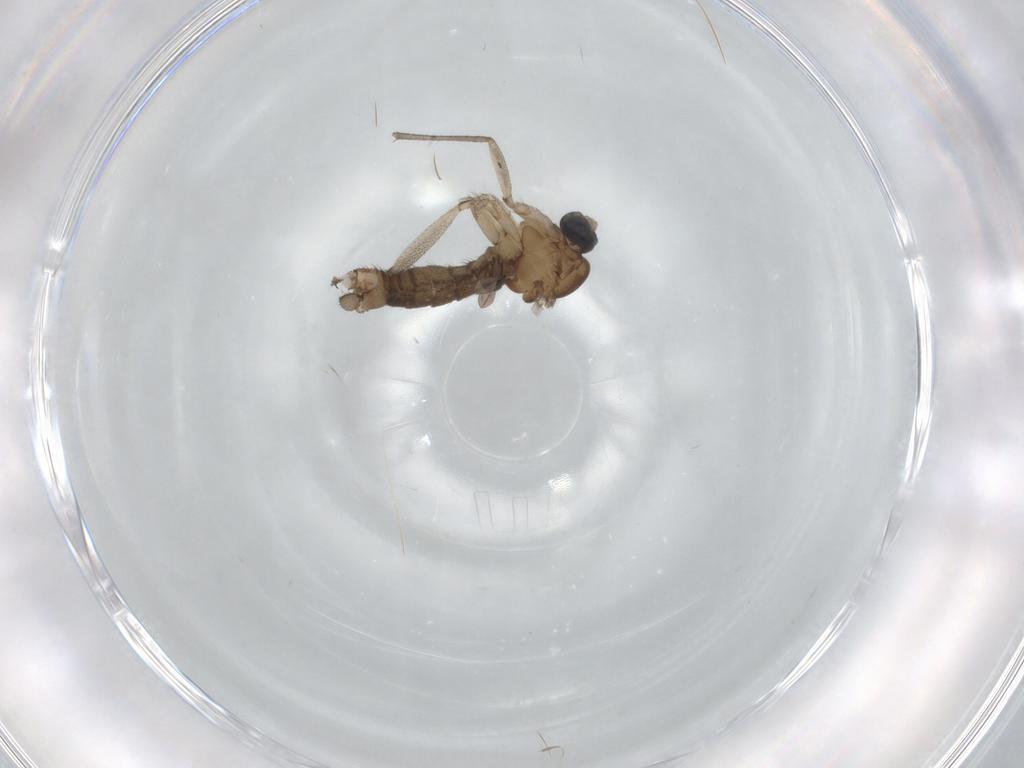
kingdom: Animalia
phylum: Arthropoda
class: Insecta
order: Diptera
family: Sciaridae
